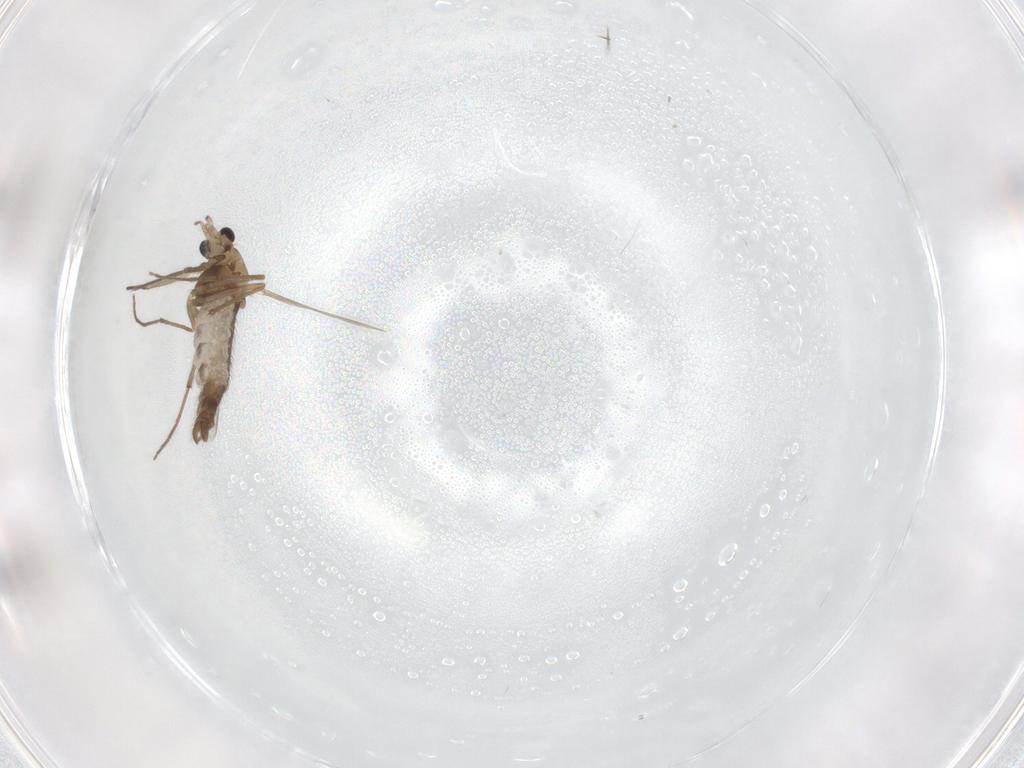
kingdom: Animalia
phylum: Arthropoda
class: Insecta
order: Diptera
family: Chironomidae
